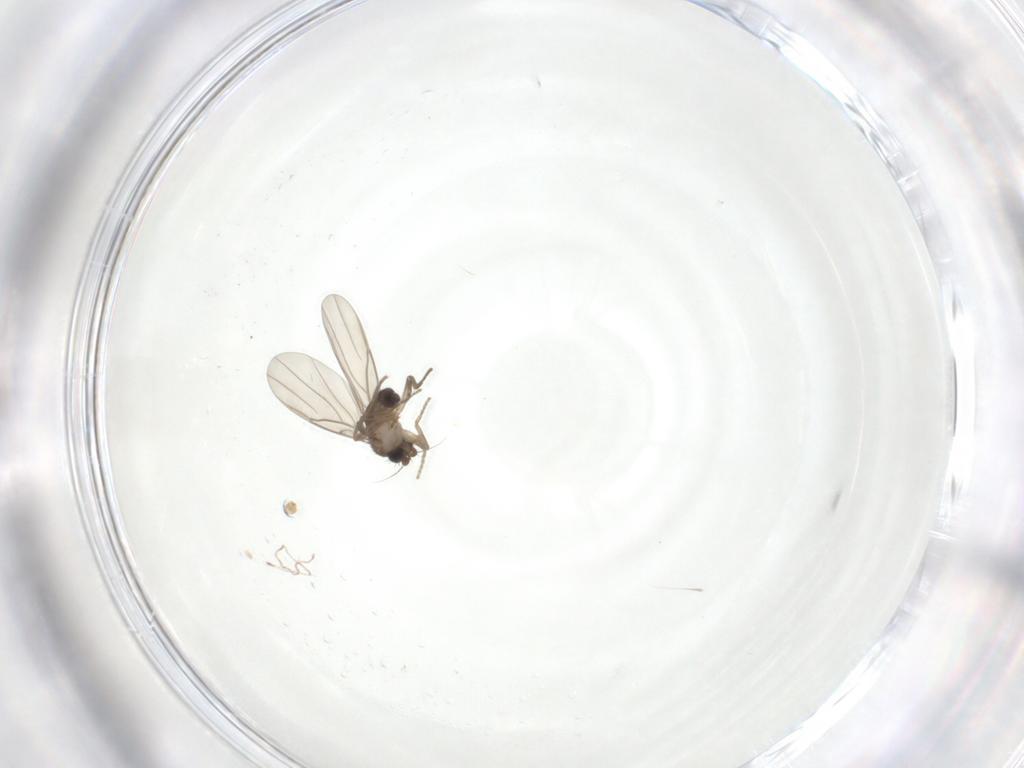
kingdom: Animalia
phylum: Arthropoda
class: Insecta
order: Diptera
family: Phoridae
